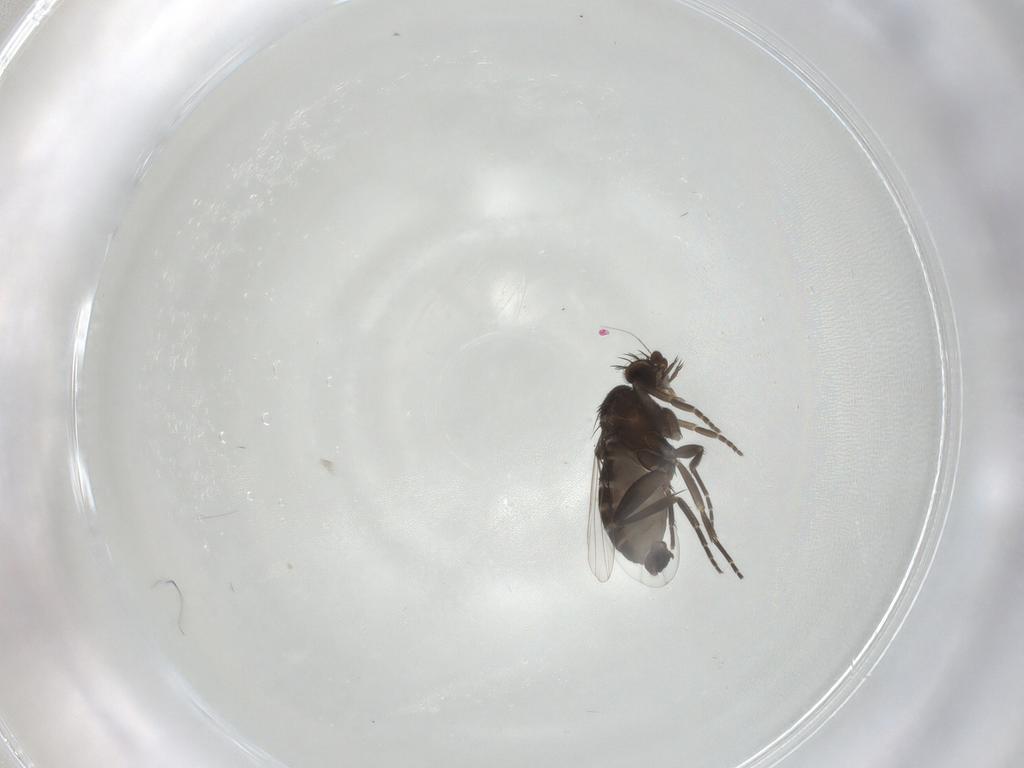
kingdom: Animalia
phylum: Arthropoda
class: Insecta
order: Diptera
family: Phoridae
